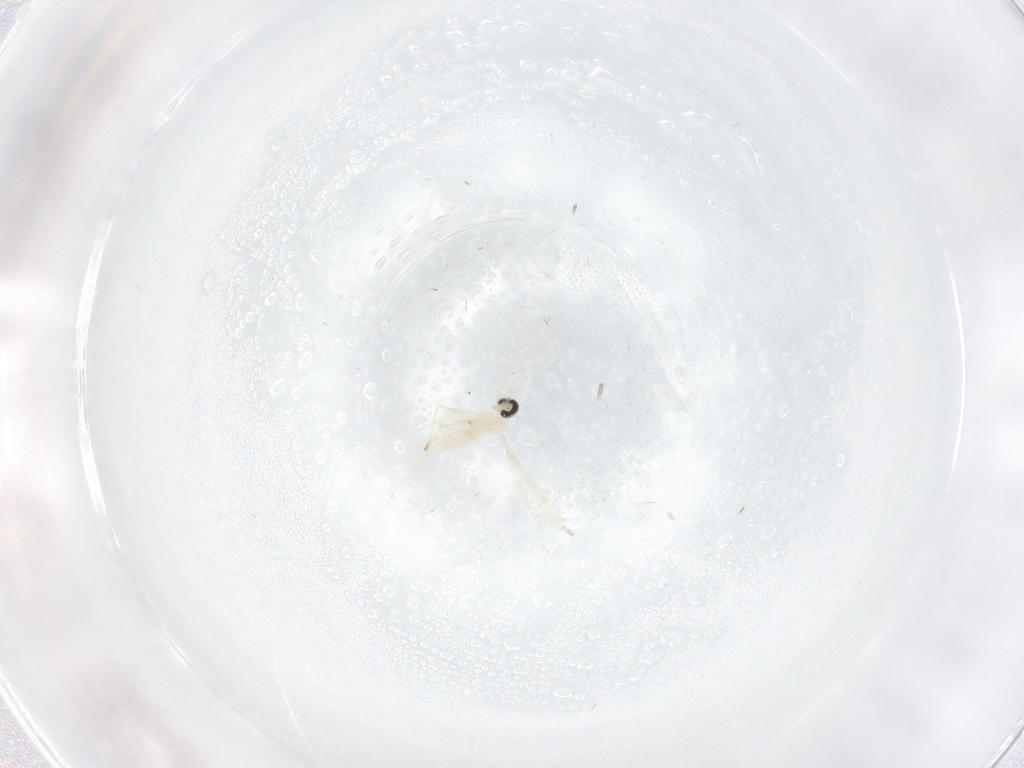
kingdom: Animalia
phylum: Arthropoda
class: Insecta
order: Diptera
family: Cecidomyiidae
